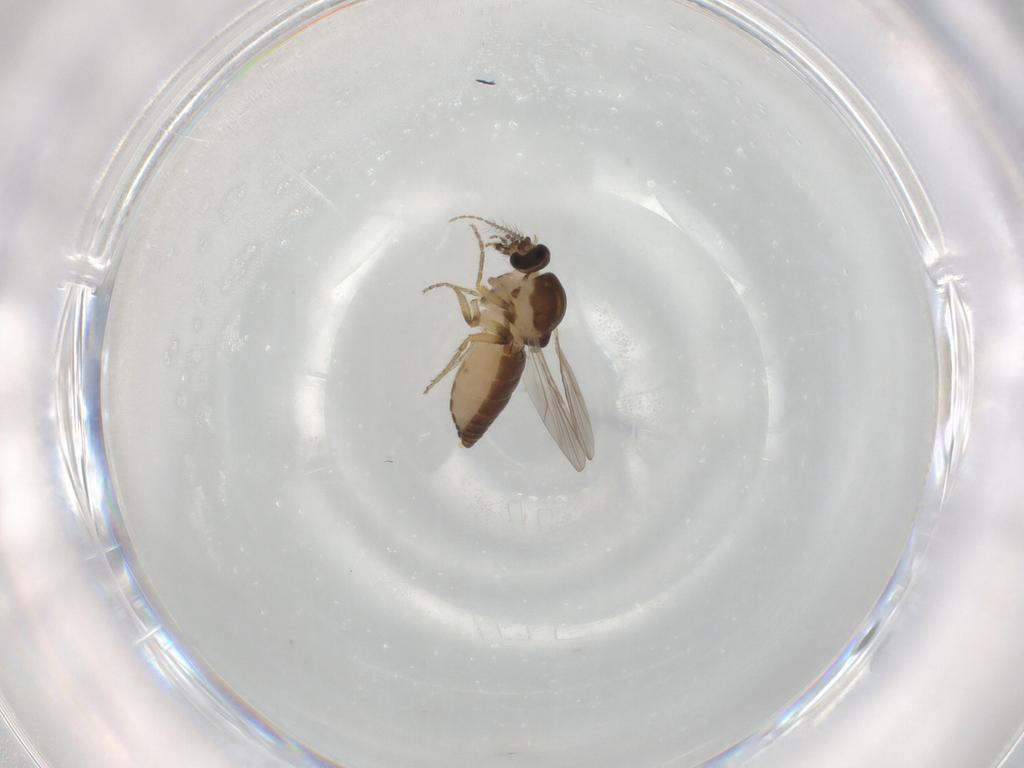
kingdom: Animalia
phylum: Arthropoda
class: Insecta
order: Diptera
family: Ceratopogonidae
